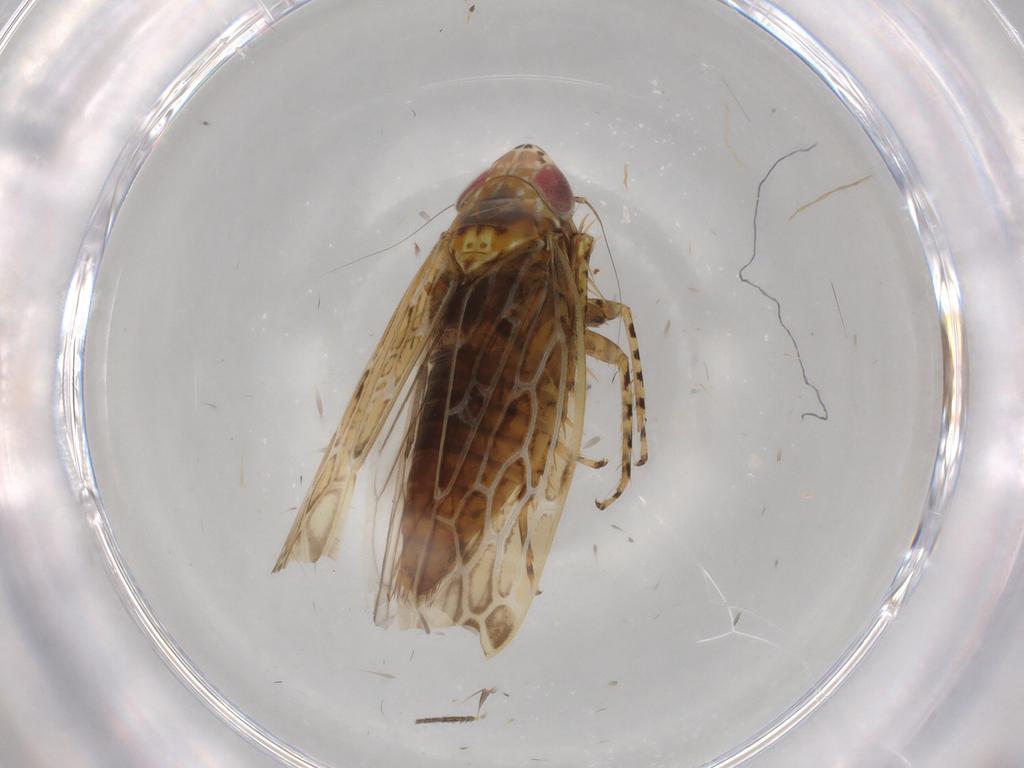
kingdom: Animalia
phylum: Arthropoda
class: Insecta
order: Hemiptera
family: Cicadellidae
